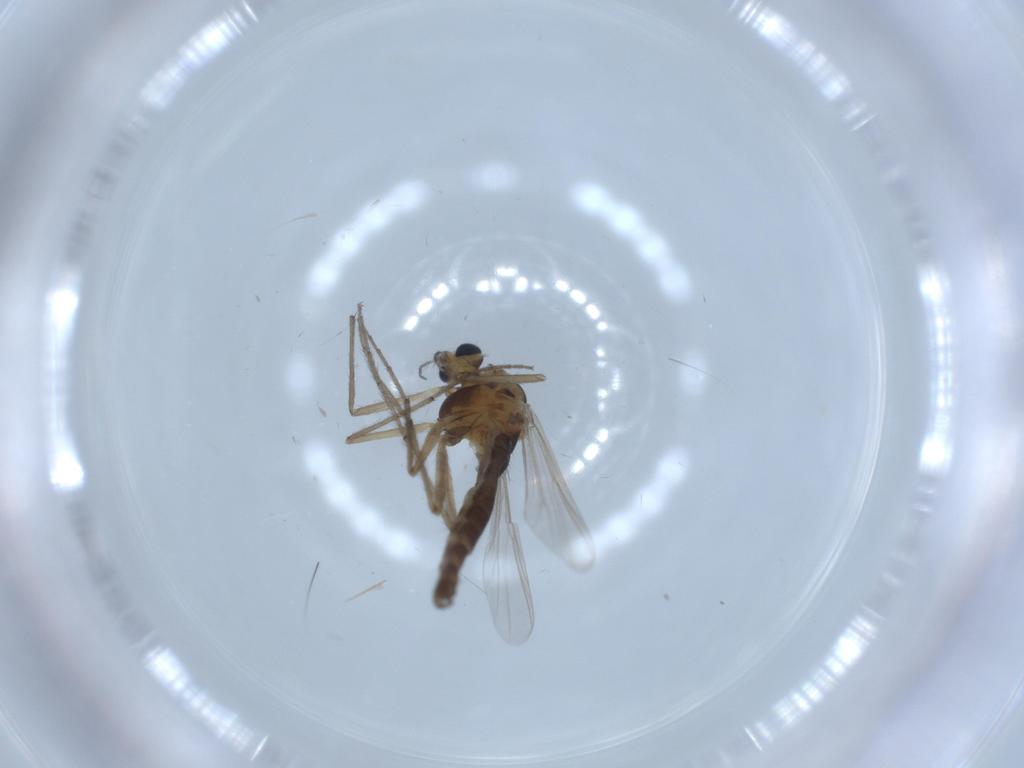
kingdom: Animalia
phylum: Arthropoda
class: Insecta
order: Diptera
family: Chironomidae
